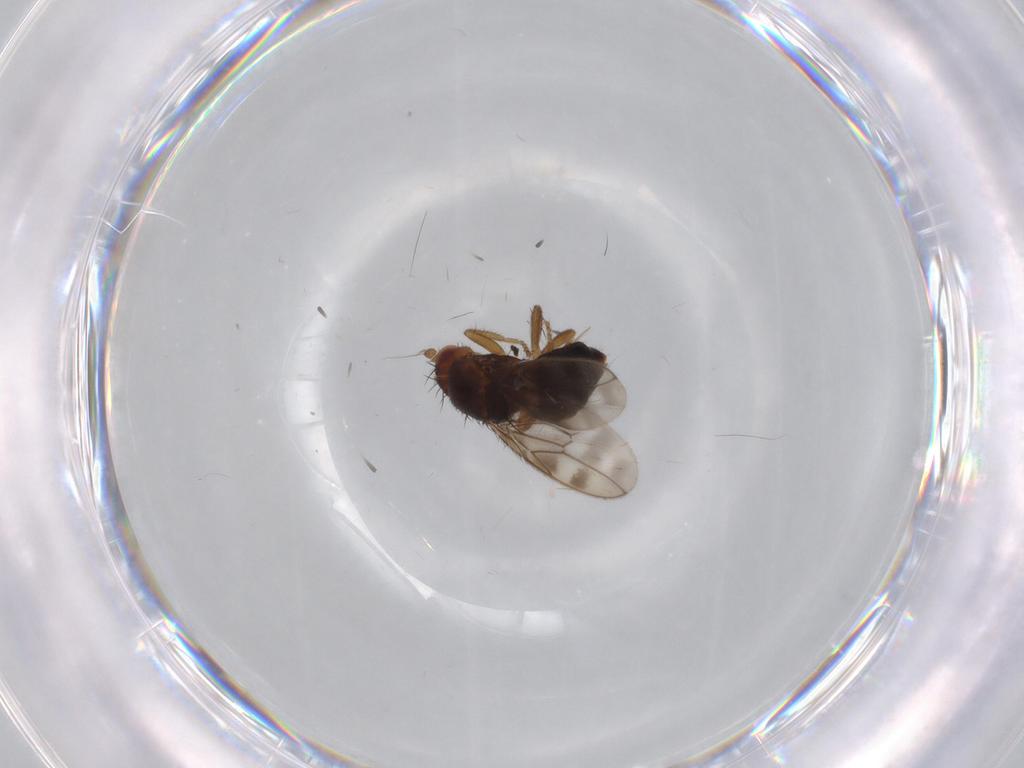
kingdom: Animalia
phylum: Arthropoda
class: Insecta
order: Diptera
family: Sphaeroceridae
